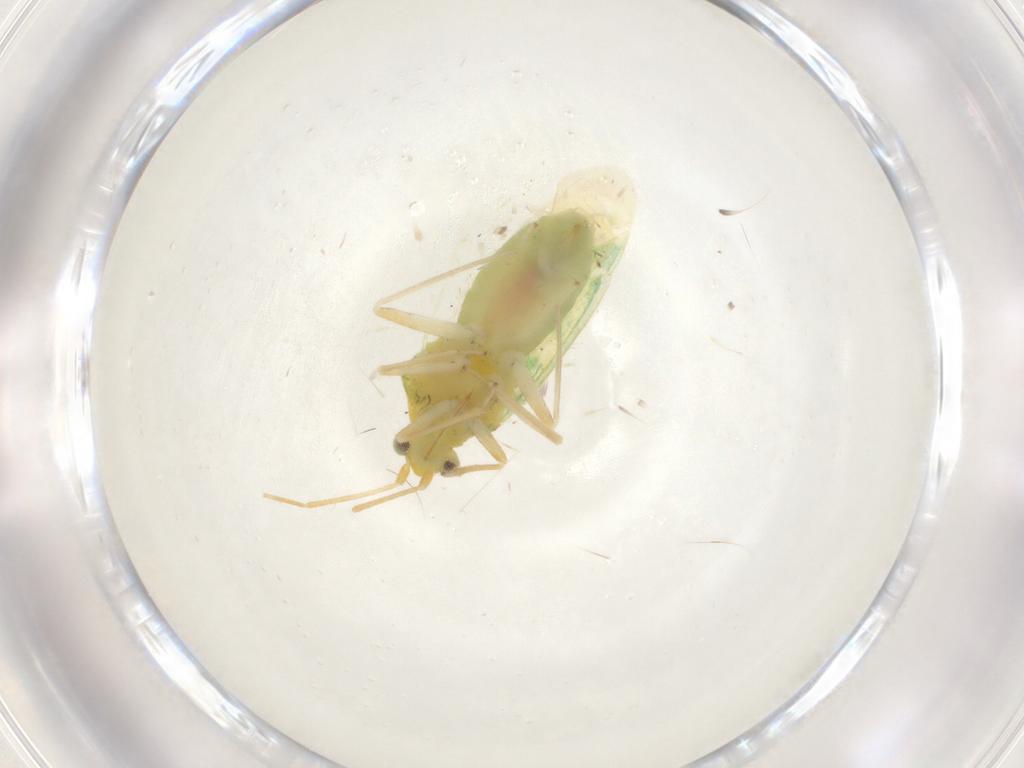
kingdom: Animalia
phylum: Arthropoda
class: Insecta
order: Hemiptera
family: Miridae
